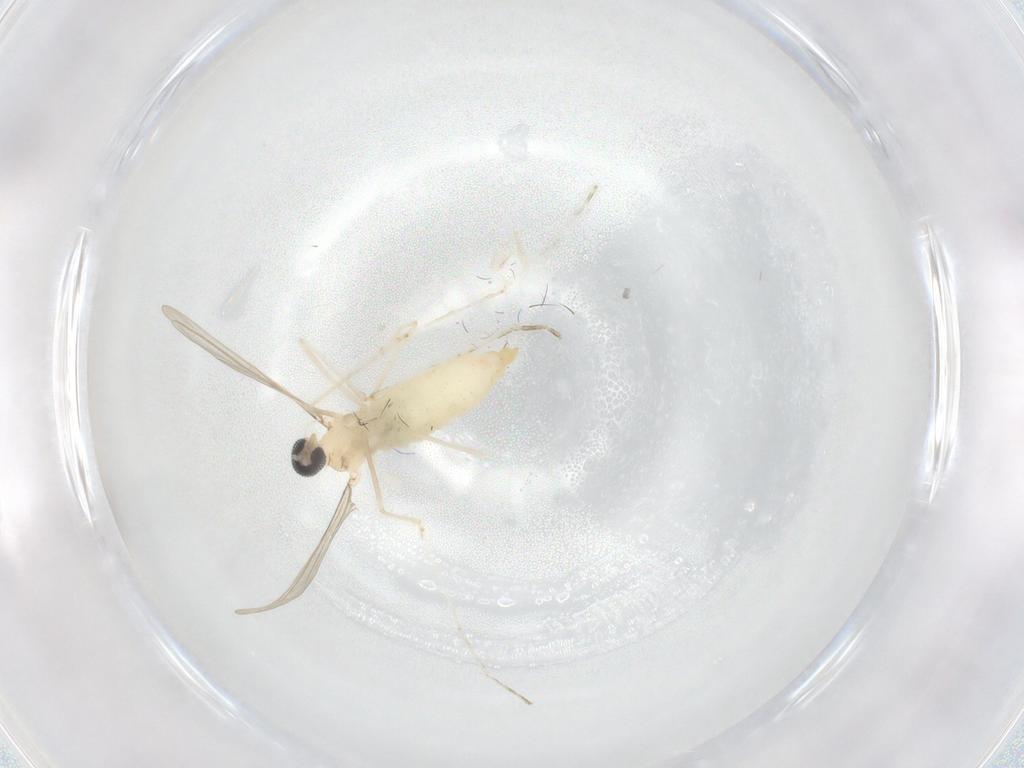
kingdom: Animalia
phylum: Arthropoda
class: Insecta
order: Diptera
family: Cecidomyiidae
